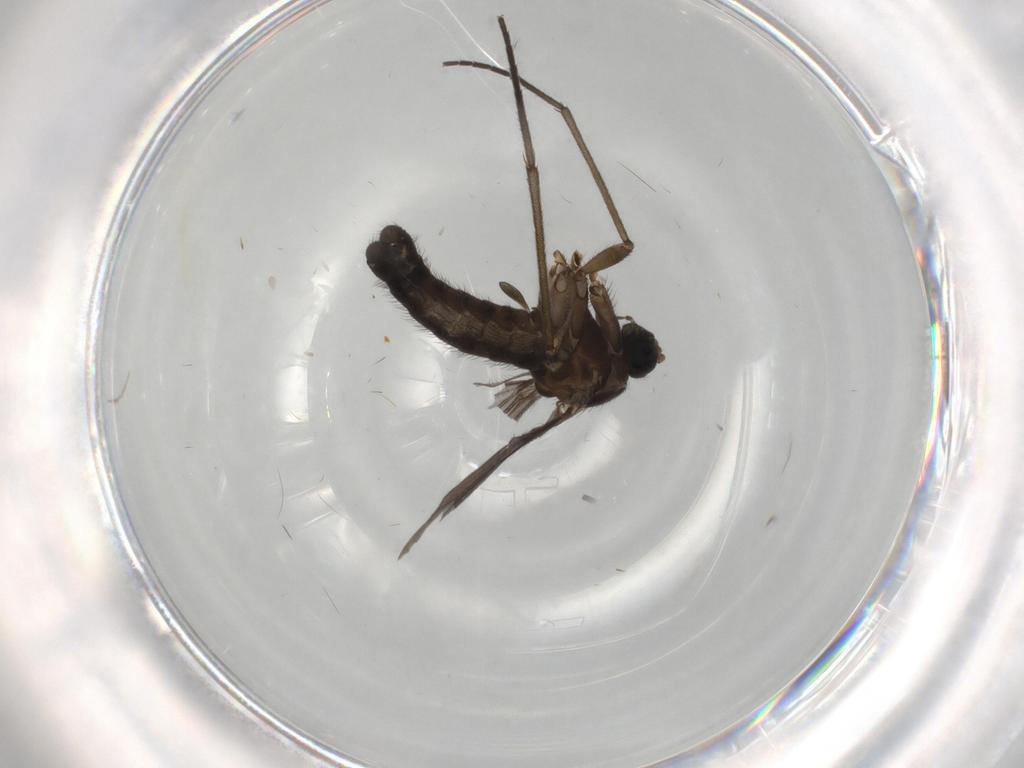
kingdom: Animalia
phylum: Arthropoda
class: Insecta
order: Diptera
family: Sciaridae
